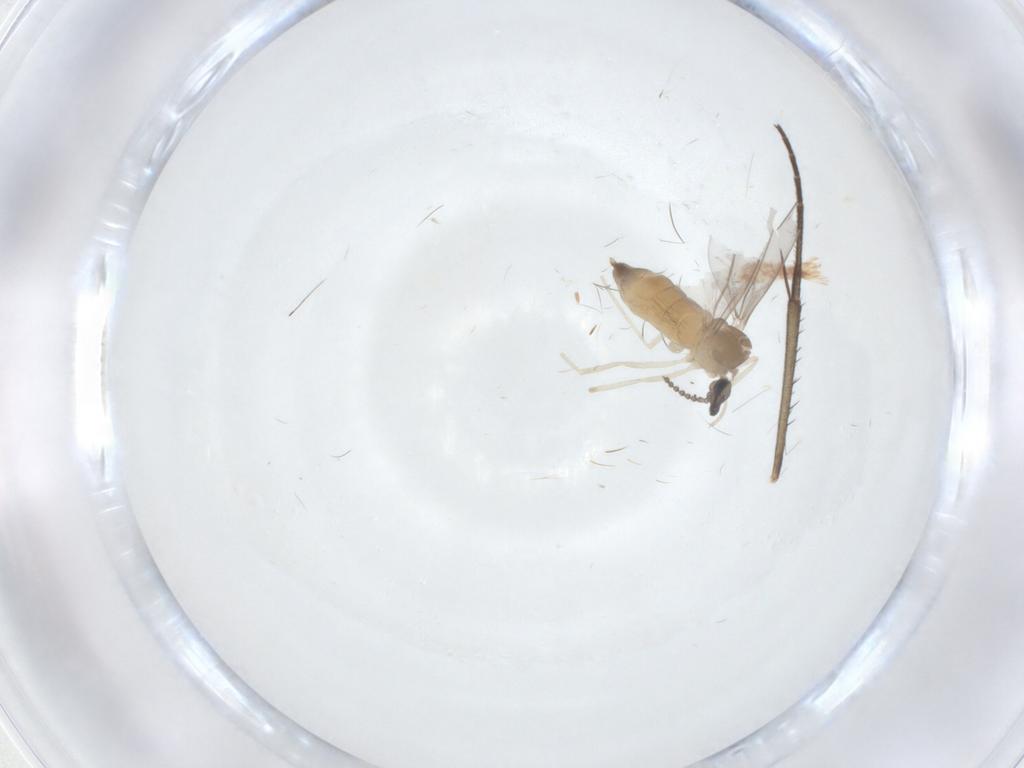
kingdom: Animalia
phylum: Arthropoda
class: Insecta
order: Diptera
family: Cecidomyiidae
